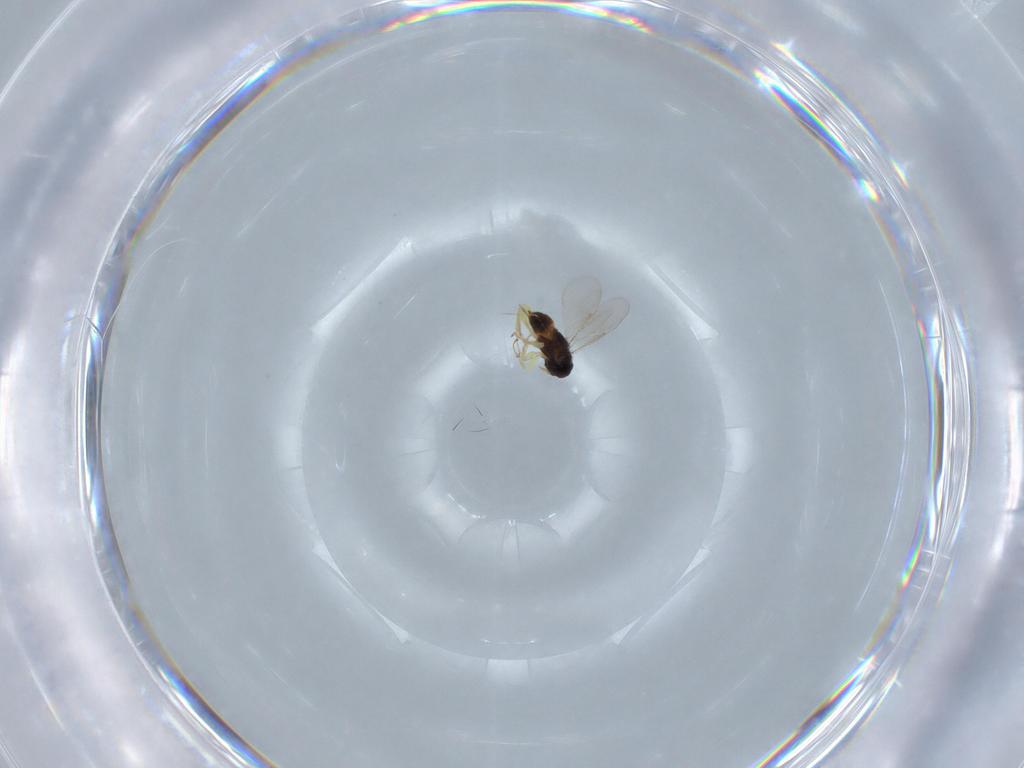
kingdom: Animalia
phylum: Arthropoda
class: Insecta
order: Hymenoptera
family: Aphelinidae
